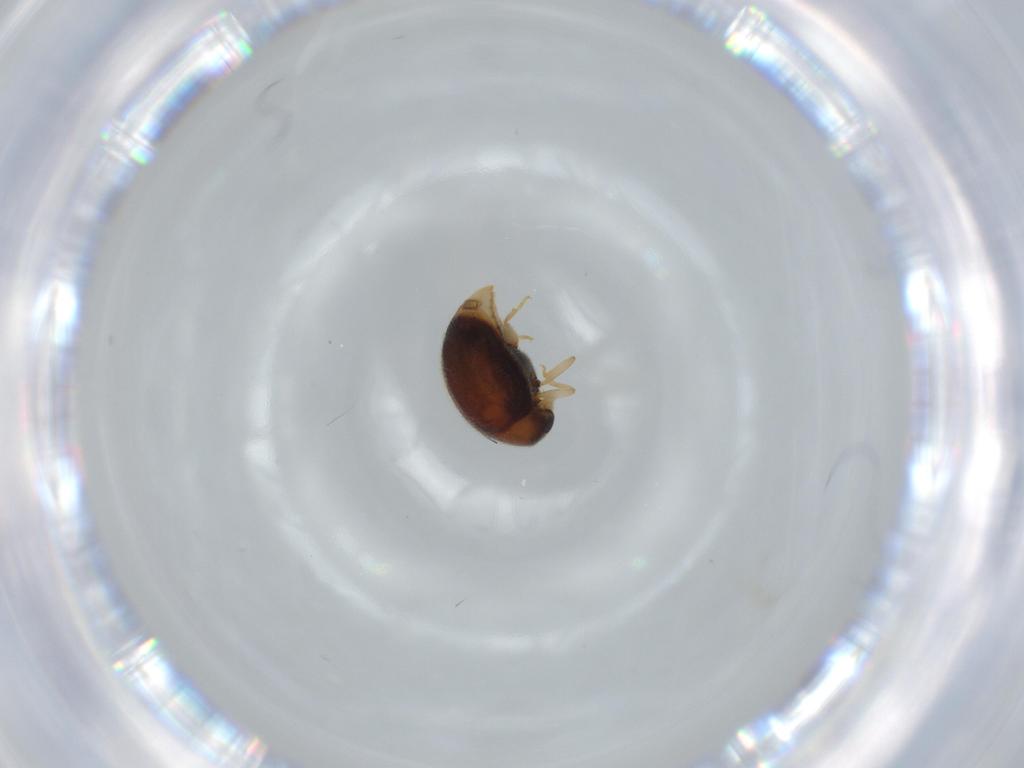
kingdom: Animalia
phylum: Arthropoda
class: Insecta
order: Coleoptera
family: Coccinellidae
